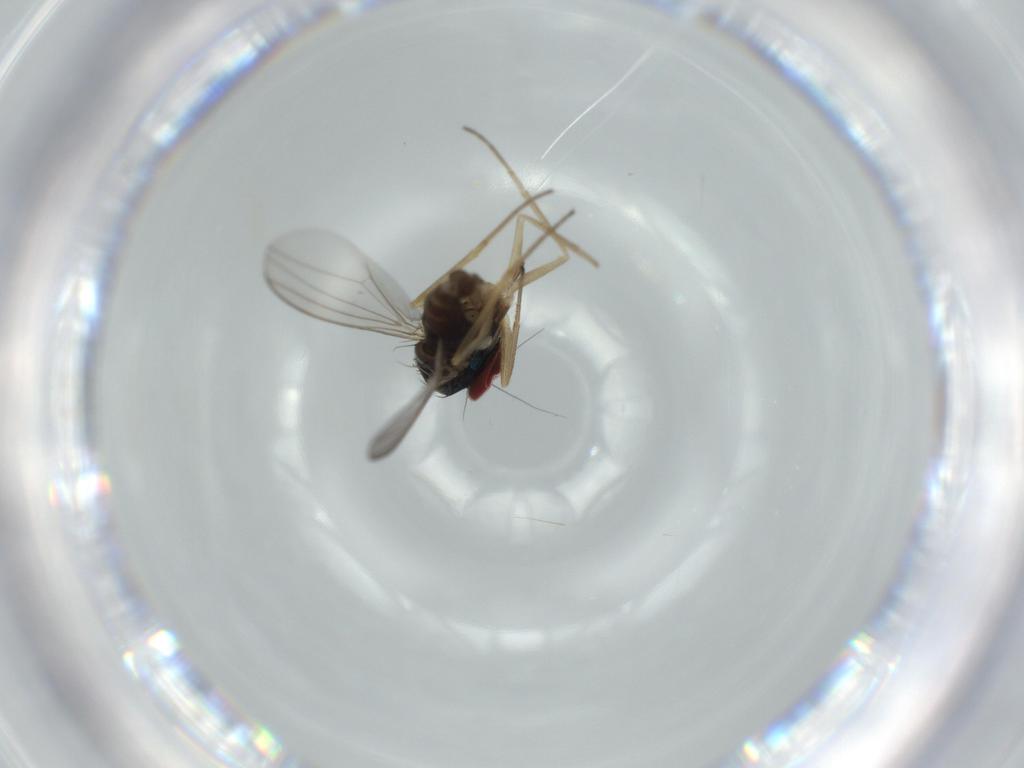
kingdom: Animalia
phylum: Arthropoda
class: Insecta
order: Diptera
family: Dolichopodidae
